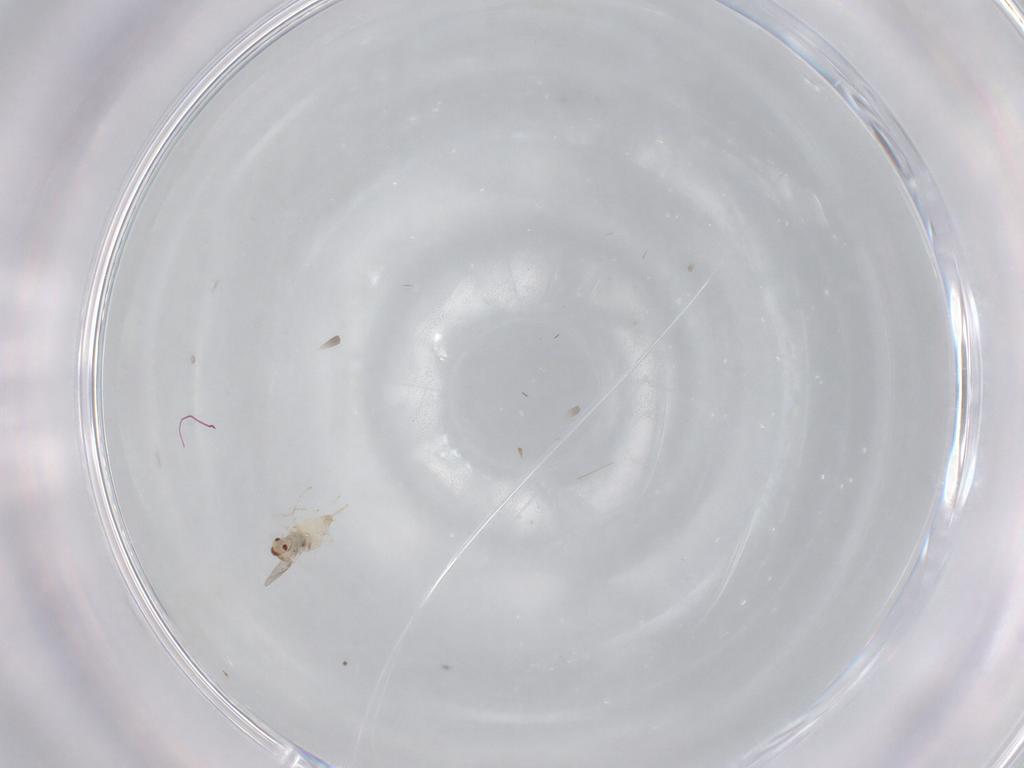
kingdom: Animalia
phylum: Arthropoda
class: Insecta
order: Diptera
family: Cecidomyiidae
